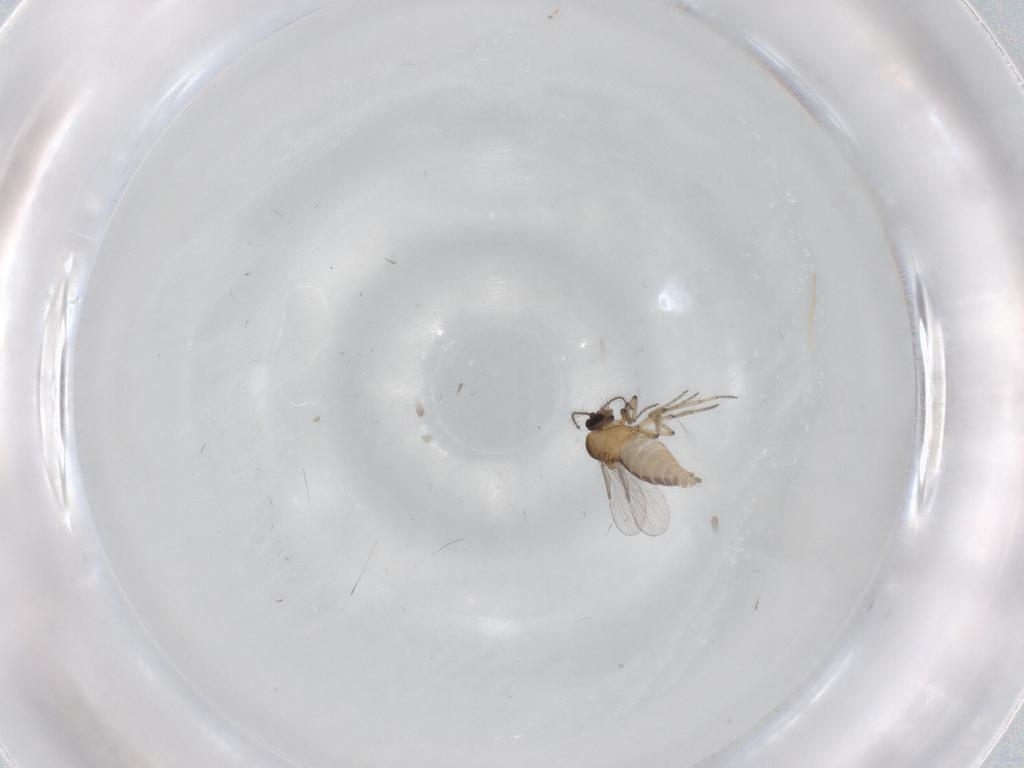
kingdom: Animalia
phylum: Arthropoda
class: Insecta
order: Diptera
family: Ceratopogonidae
